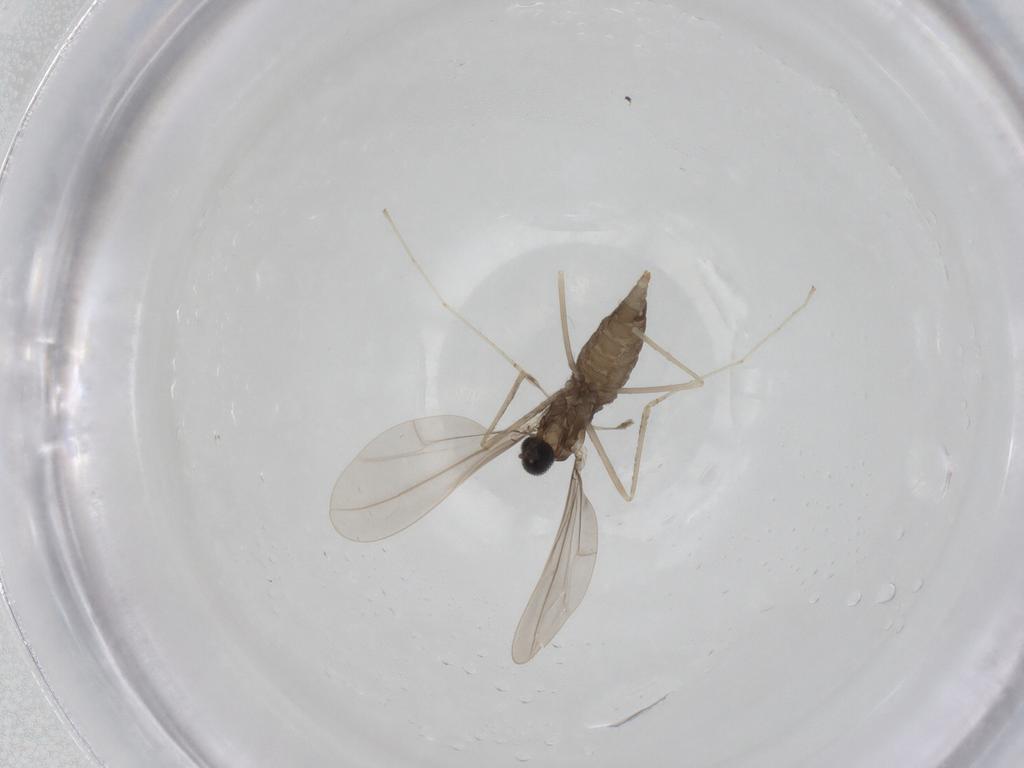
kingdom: Animalia
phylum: Arthropoda
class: Insecta
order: Diptera
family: Cecidomyiidae
